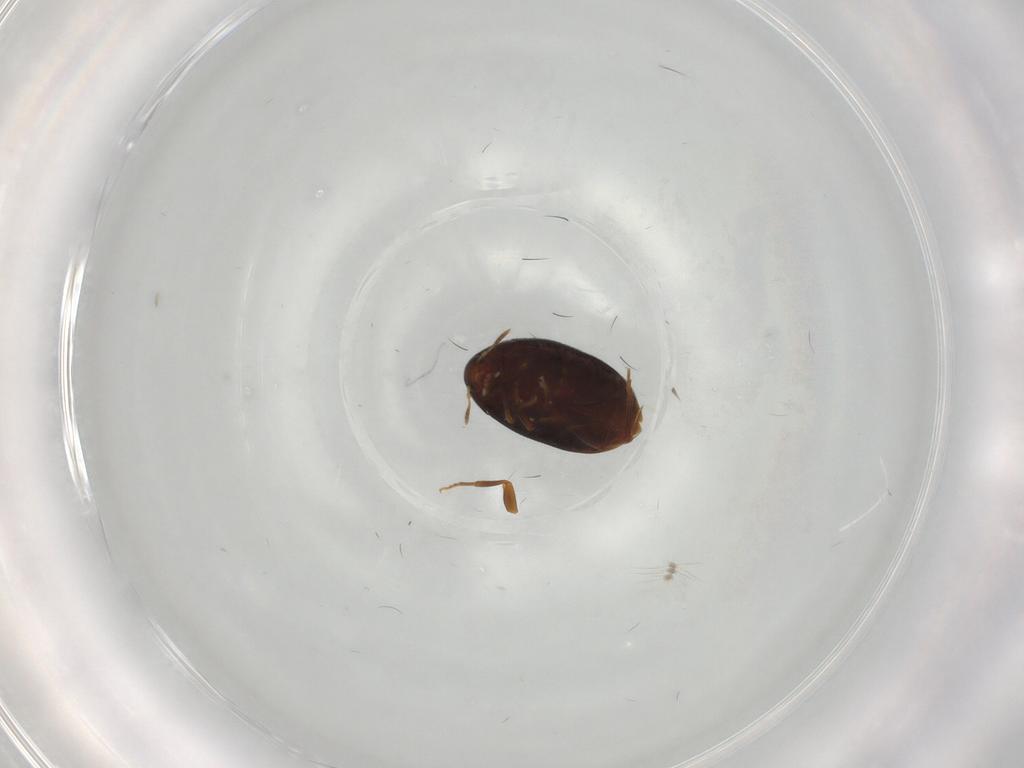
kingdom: Animalia
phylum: Arthropoda
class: Insecta
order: Coleoptera
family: Melandryidae
